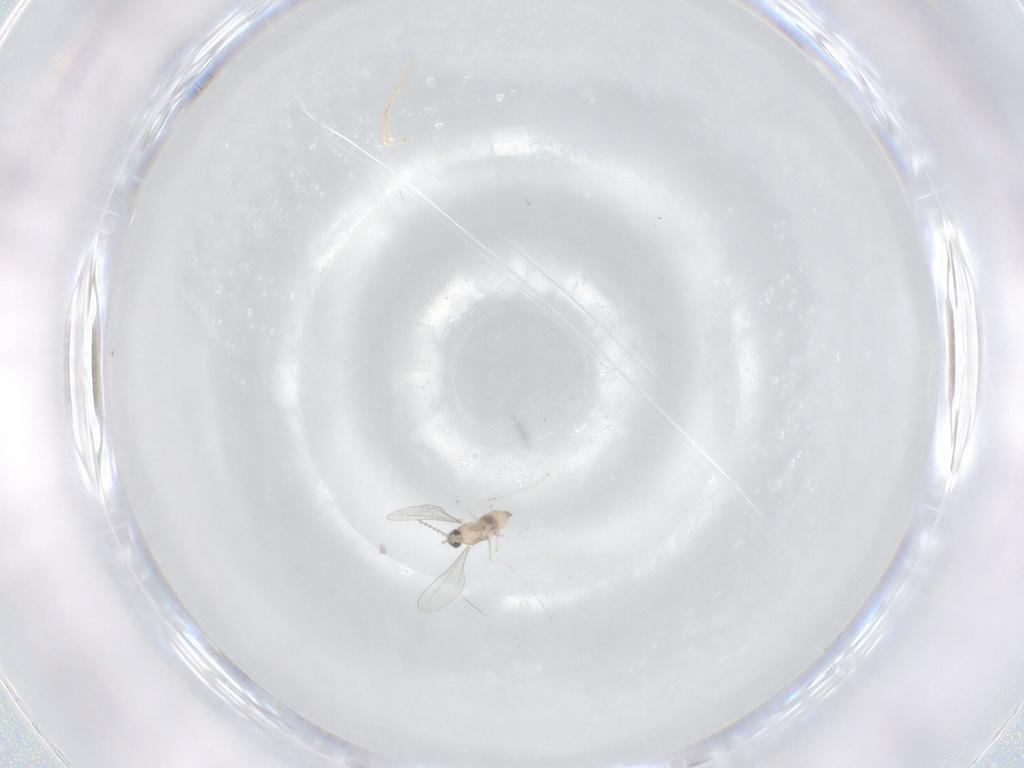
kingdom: Animalia
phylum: Arthropoda
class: Insecta
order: Diptera
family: Cecidomyiidae
